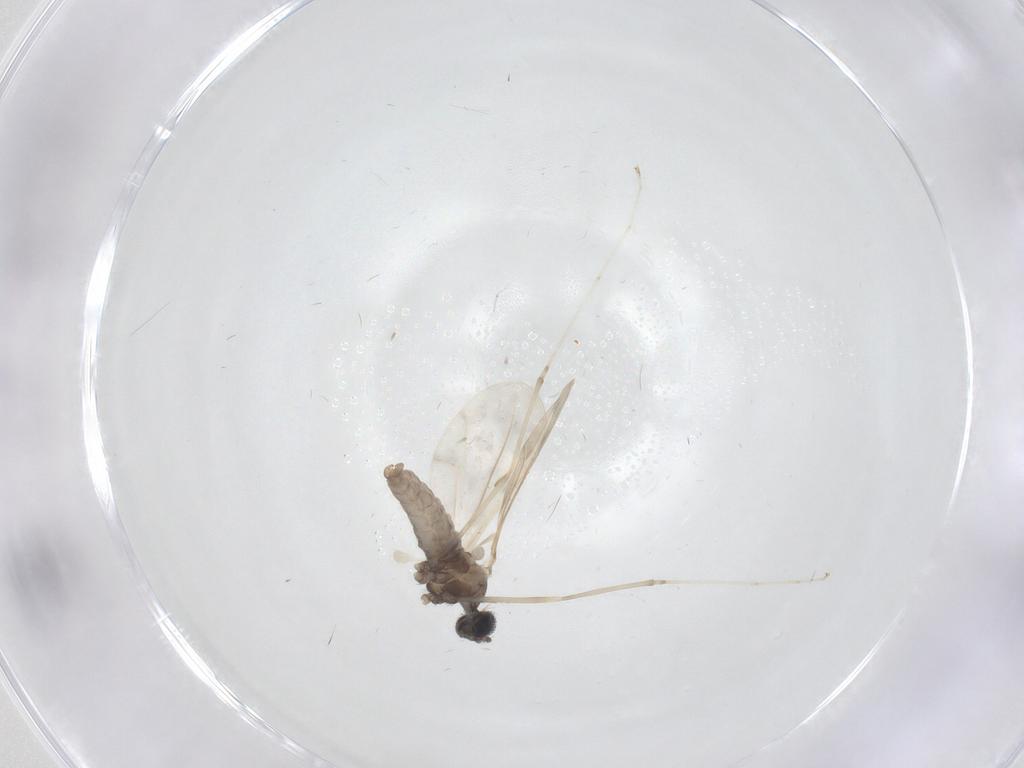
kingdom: Animalia
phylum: Arthropoda
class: Insecta
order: Diptera
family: Cecidomyiidae
